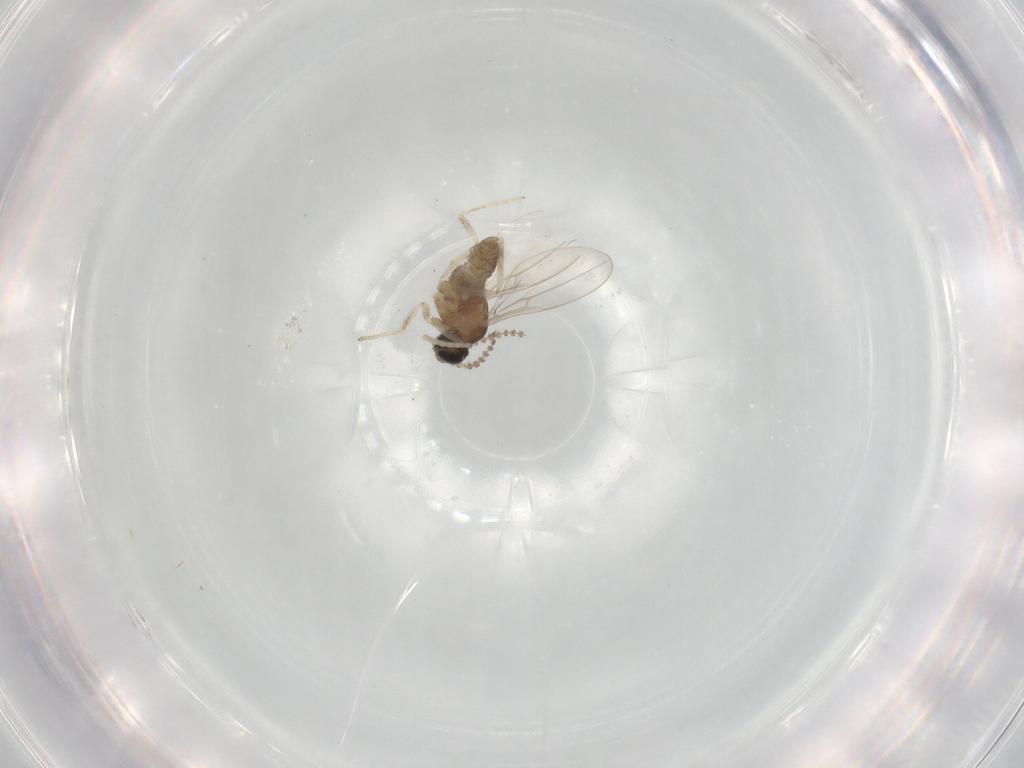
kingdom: Animalia
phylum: Arthropoda
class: Insecta
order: Diptera
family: Cecidomyiidae
